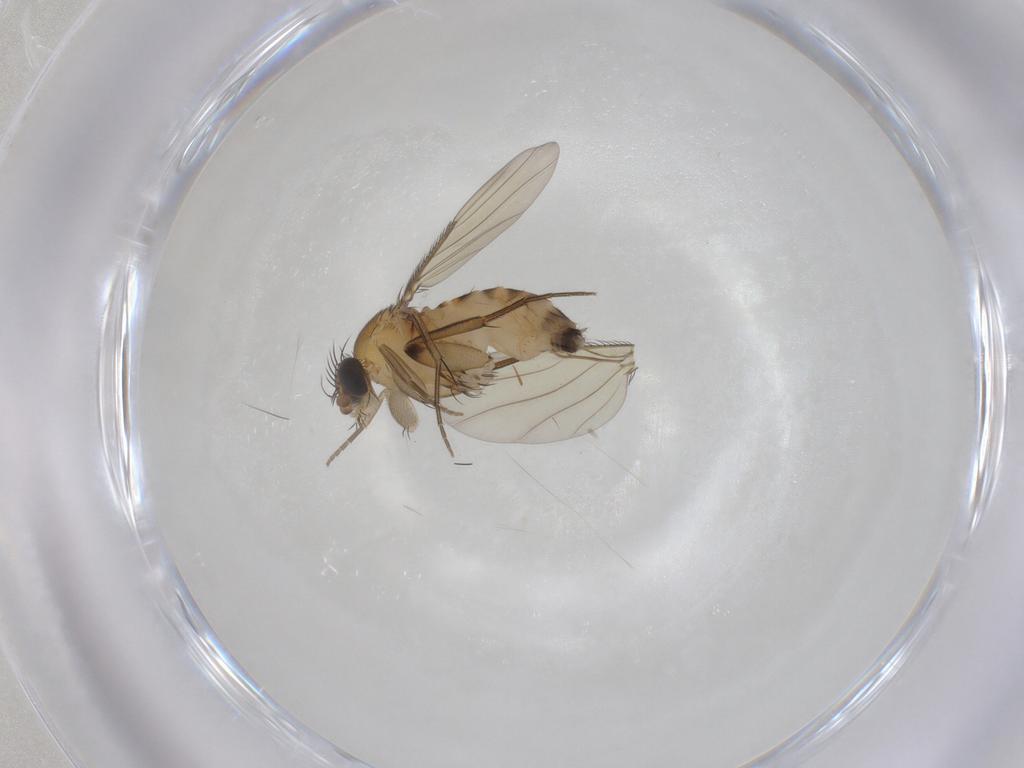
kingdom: Animalia
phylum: Arthropoda
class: Insecta
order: Diptera
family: Phoridae
